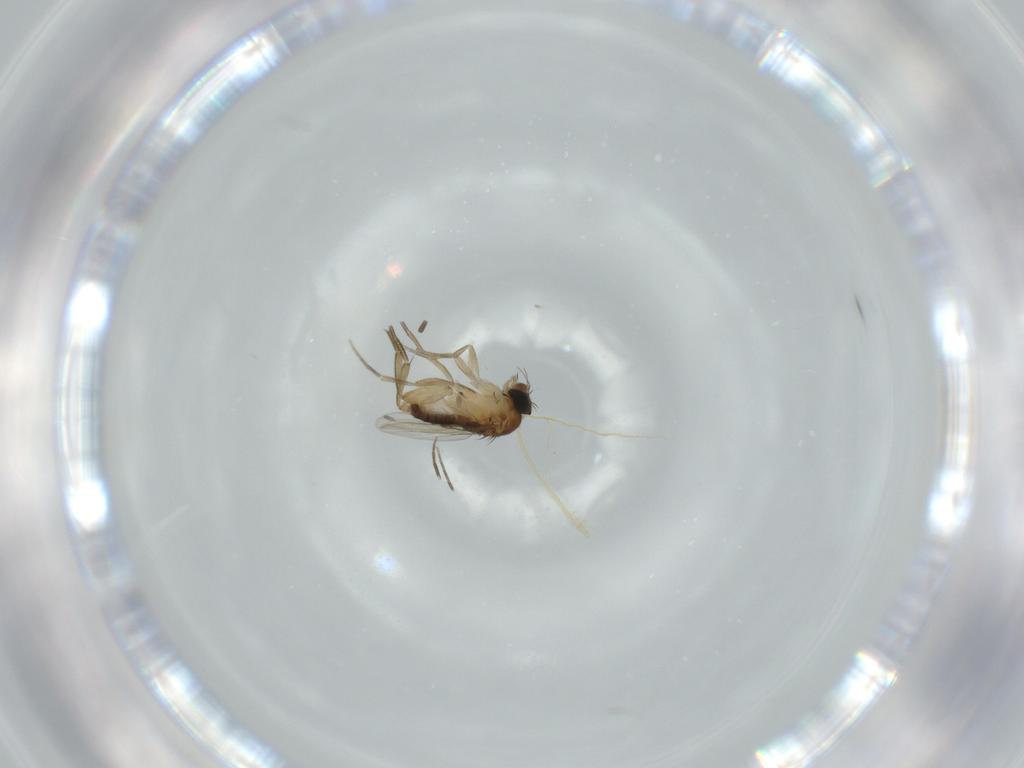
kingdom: Animalia
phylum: Arthropoda
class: Insecta
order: Diptera
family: Phoridae
